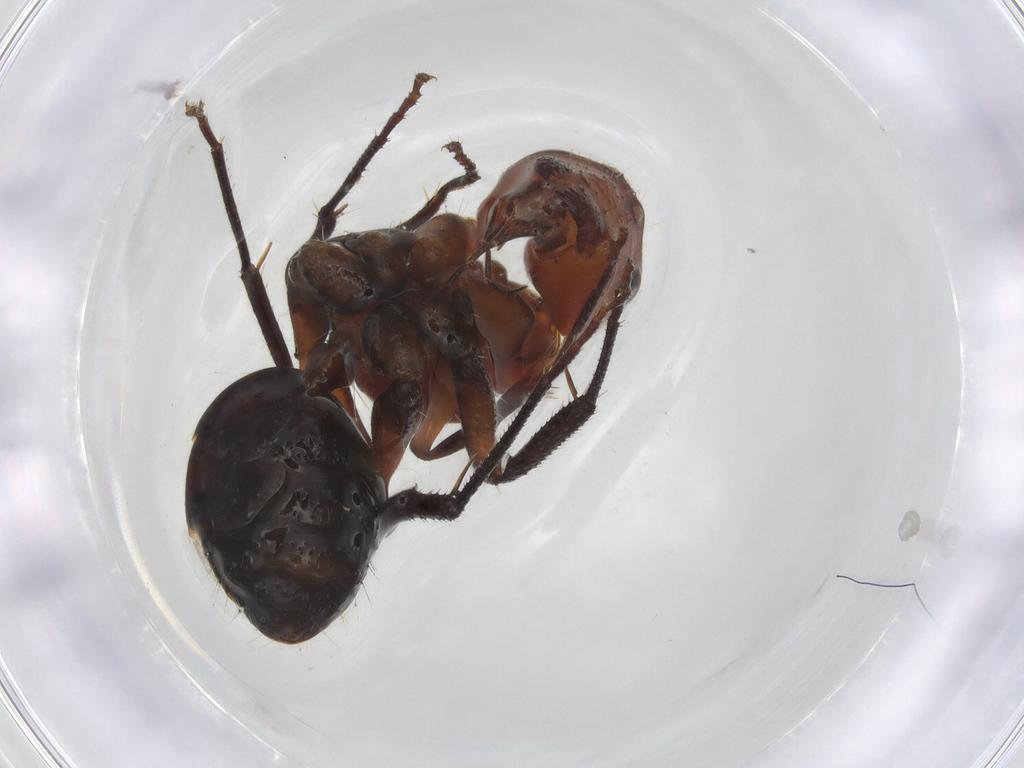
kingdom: Animalia
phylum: Arthropoda
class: Insecta
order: Hymenoptera
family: Formicidae
